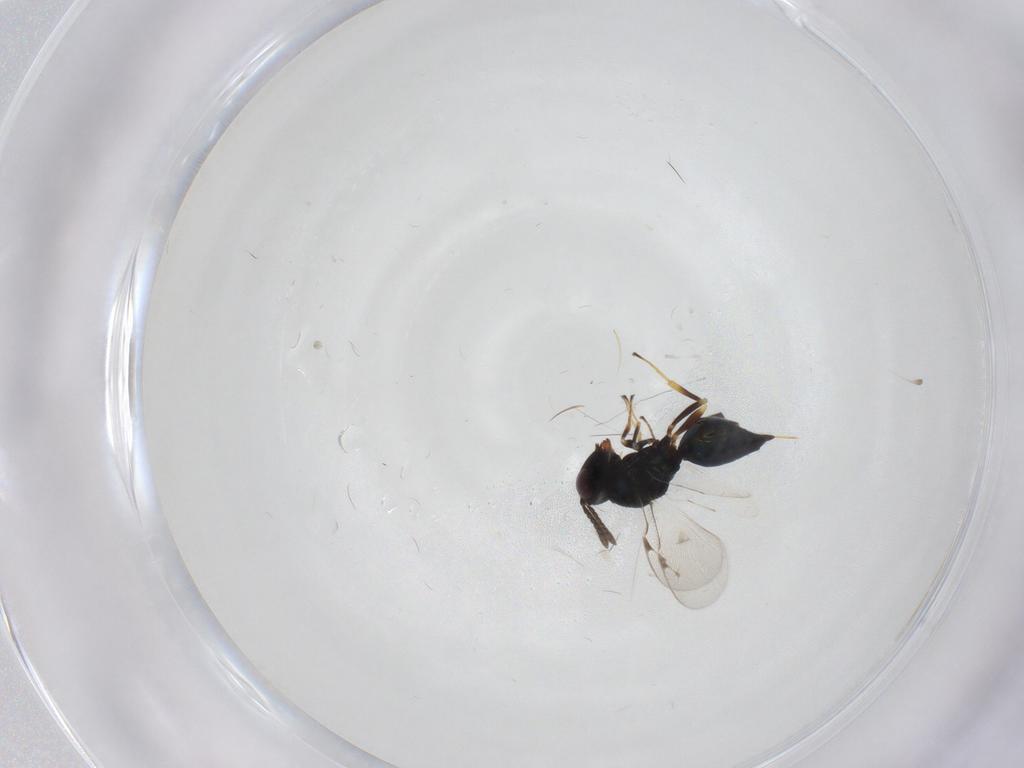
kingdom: Animalia
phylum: Arthropoda
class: Insecta
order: Hymenoptera
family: Pteromalidae
